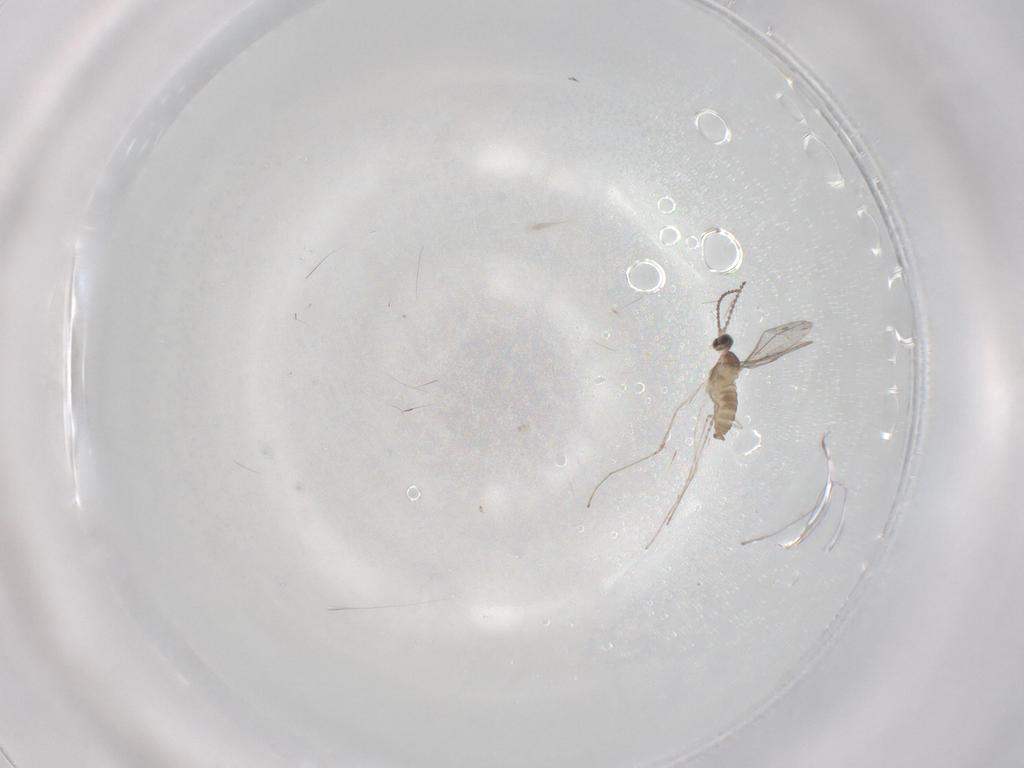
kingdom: Animalia
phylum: Arthropoda
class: Insecta
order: Diptera
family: Cecidomyiidae
